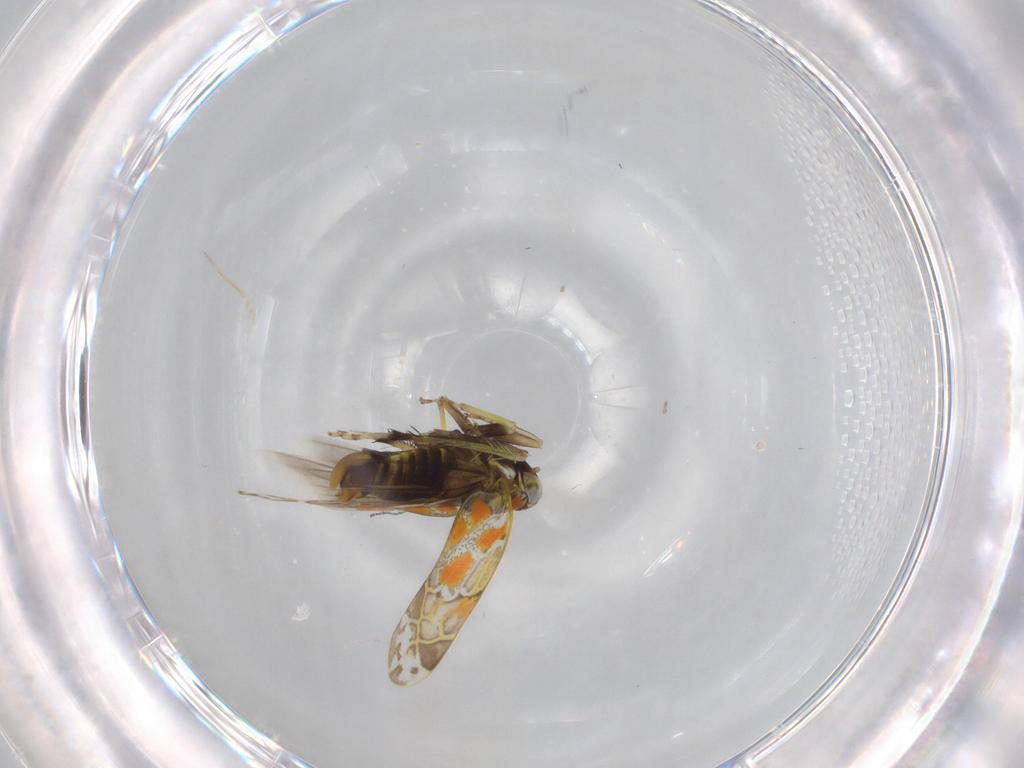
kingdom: Animalia
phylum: Arthropoda
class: Insecta
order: Hemiptera
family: Cicadellidae
